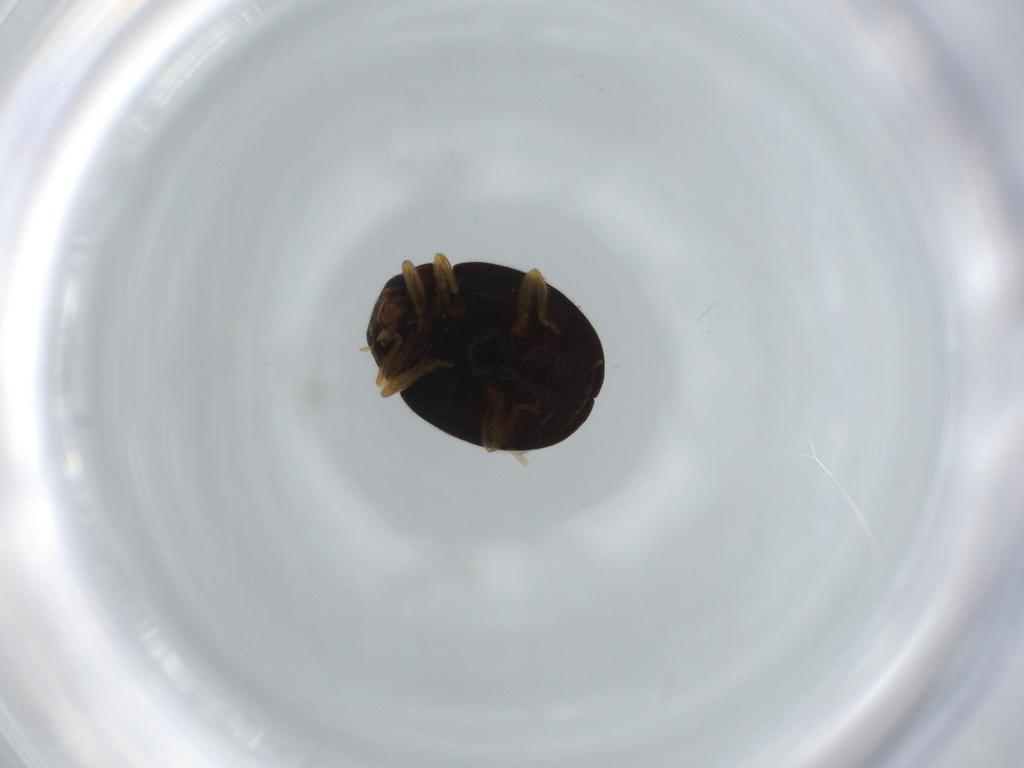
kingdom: Animalia
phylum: Arthropoda
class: Insecta
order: Coleoptera
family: Coccinellidae
